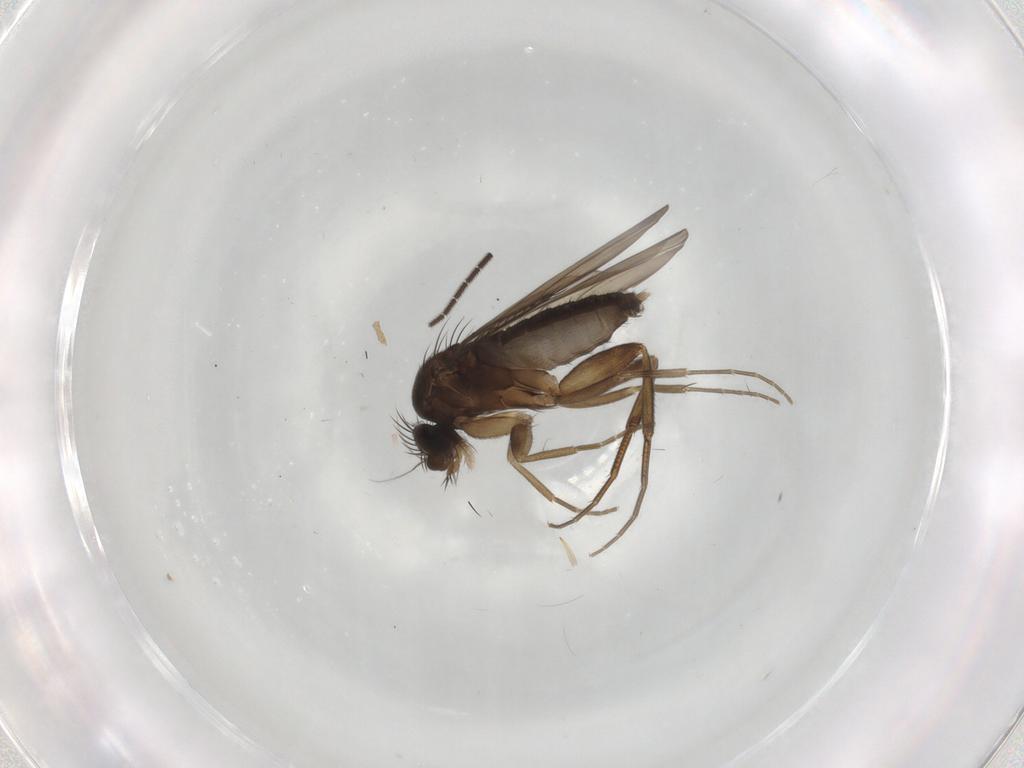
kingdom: Animalia
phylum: Arthropoda
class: Insecta
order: Diptera
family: Phoridae
